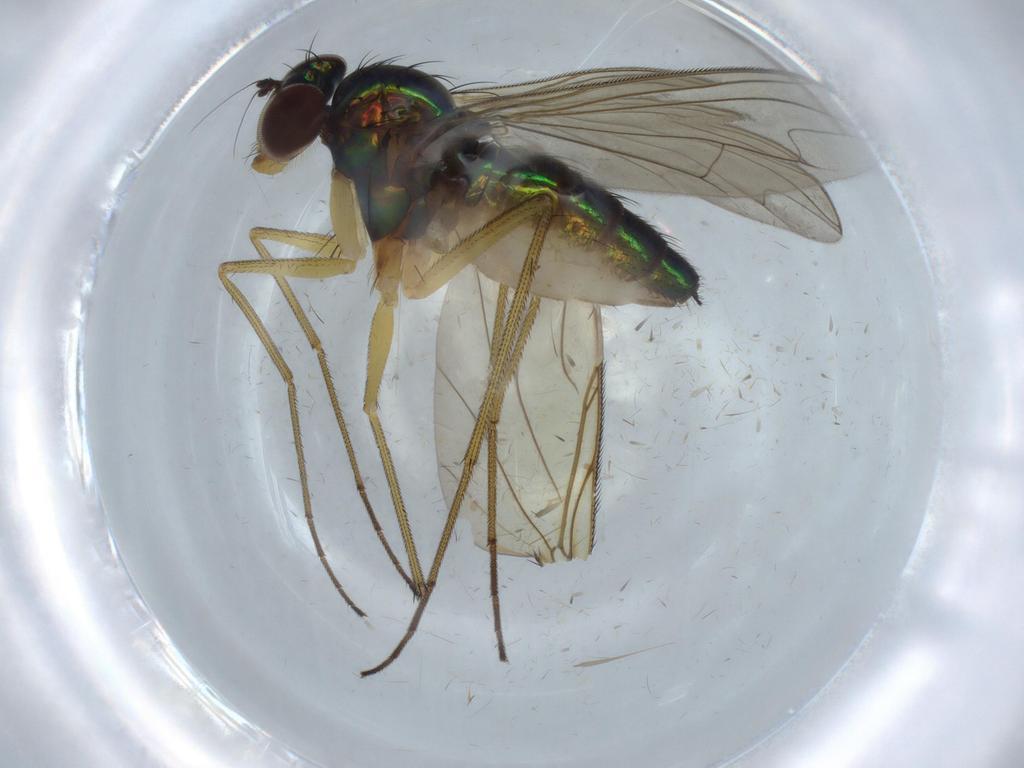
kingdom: Animalia
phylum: Arthropoda
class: Insecta
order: Diptera
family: Dolichopodidae
